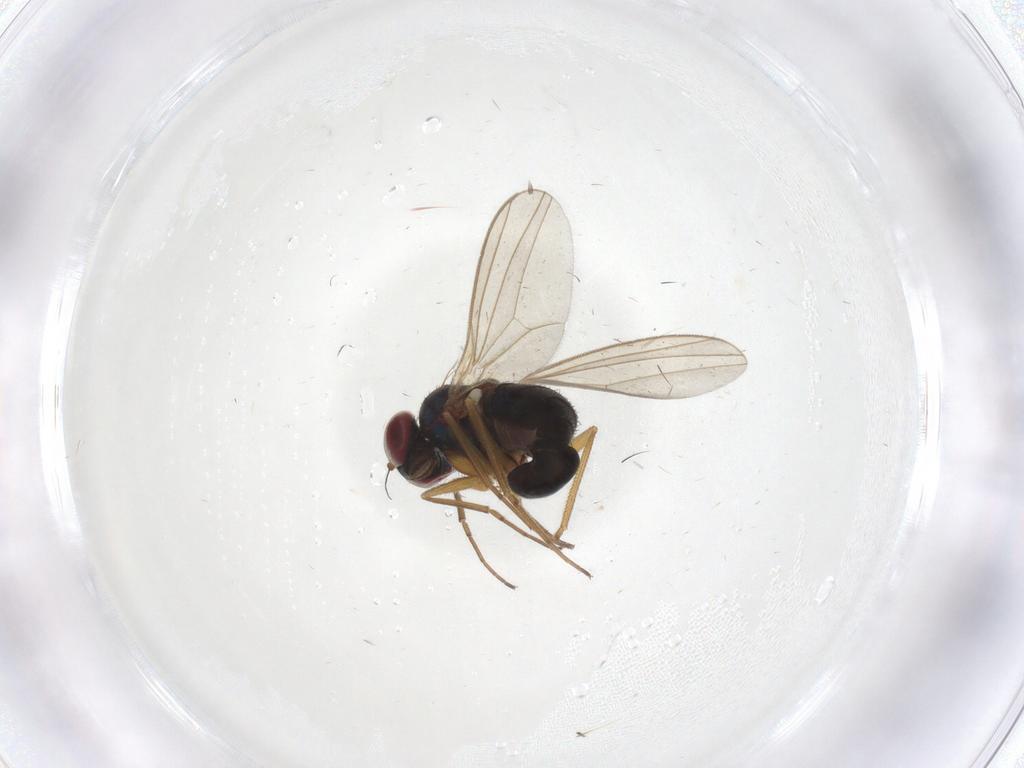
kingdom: Animalia
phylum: Arthropoda
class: Insecta
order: Diptera
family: Dolichopodidae
